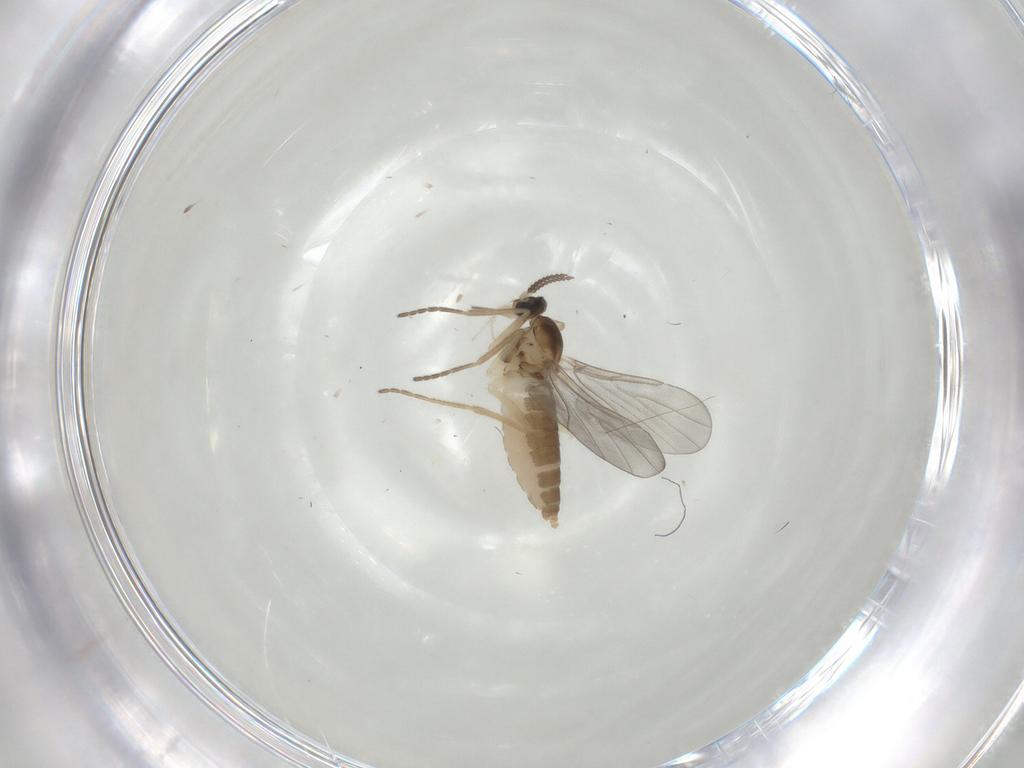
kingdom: Animalia
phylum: Arthropoda
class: Insecta
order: Diptera
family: Cecidomyiidae
